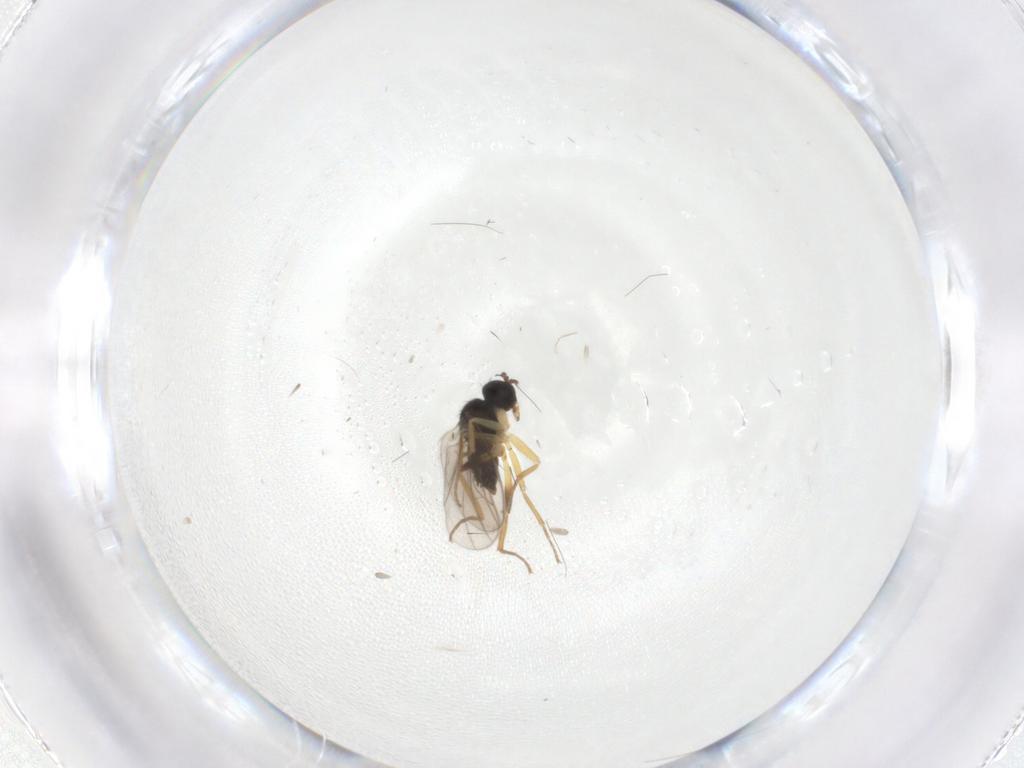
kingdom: Animalia
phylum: Arthropoda
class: Insecta
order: Diptera
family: Hybotidae
